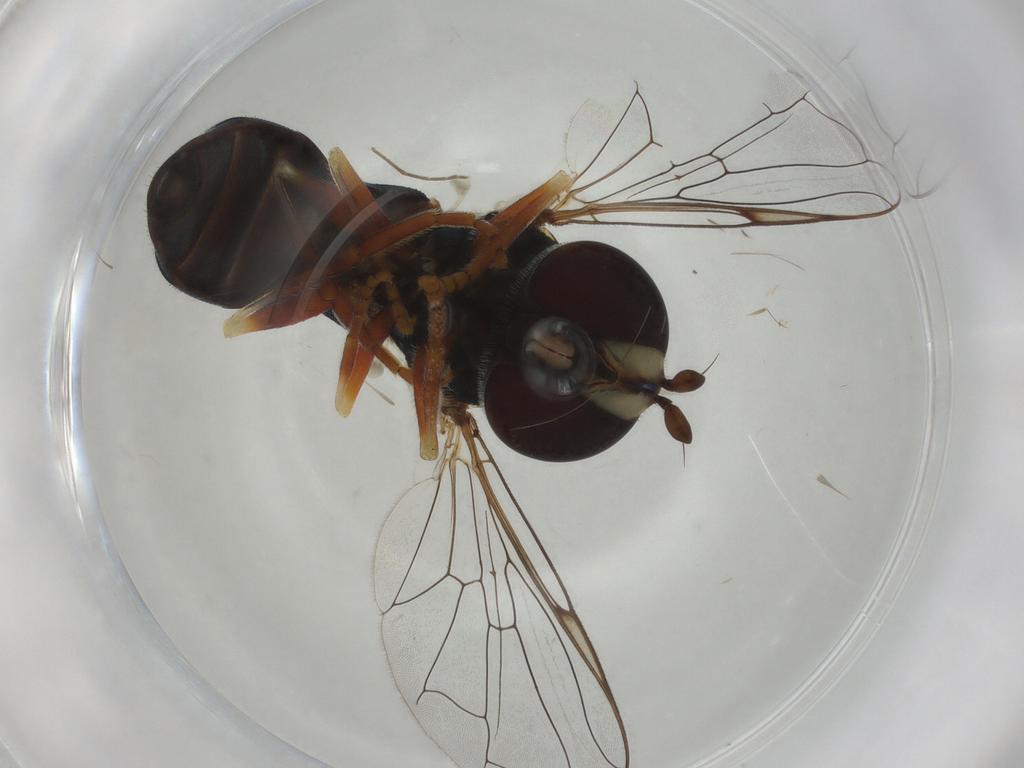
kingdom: Animalia
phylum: Arthropoda
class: Insecta
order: Diptera
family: Syrphidae
